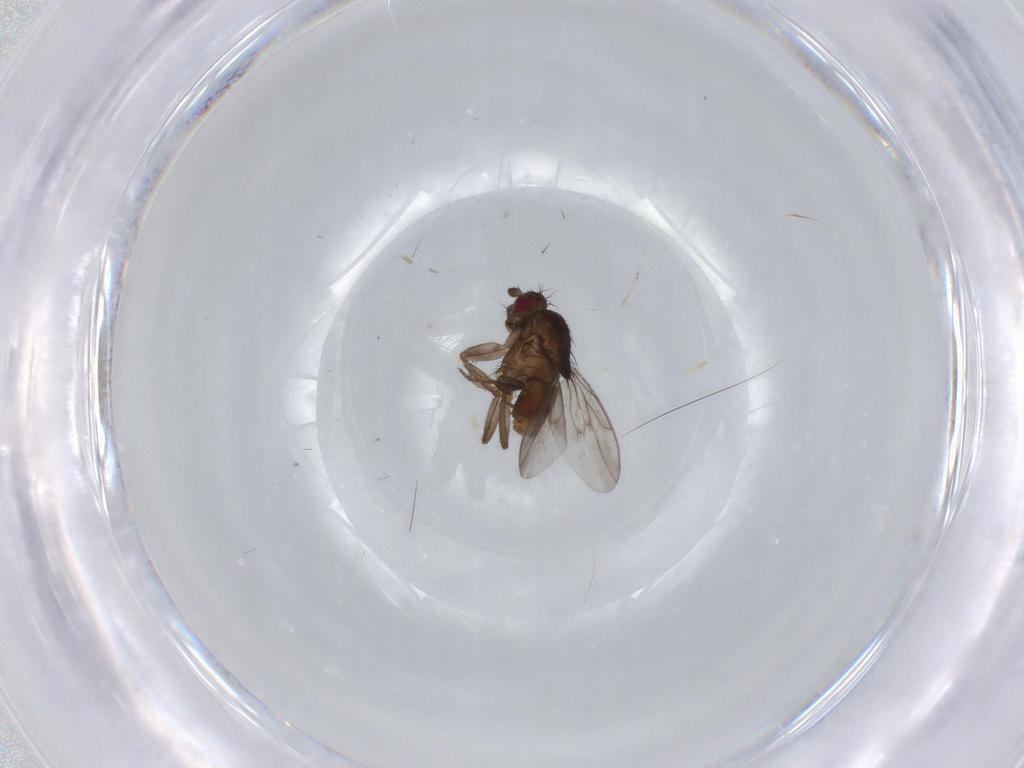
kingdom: Animalia
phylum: Arthropoda
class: Insecta
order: Diptera
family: Sphaeroceridae
